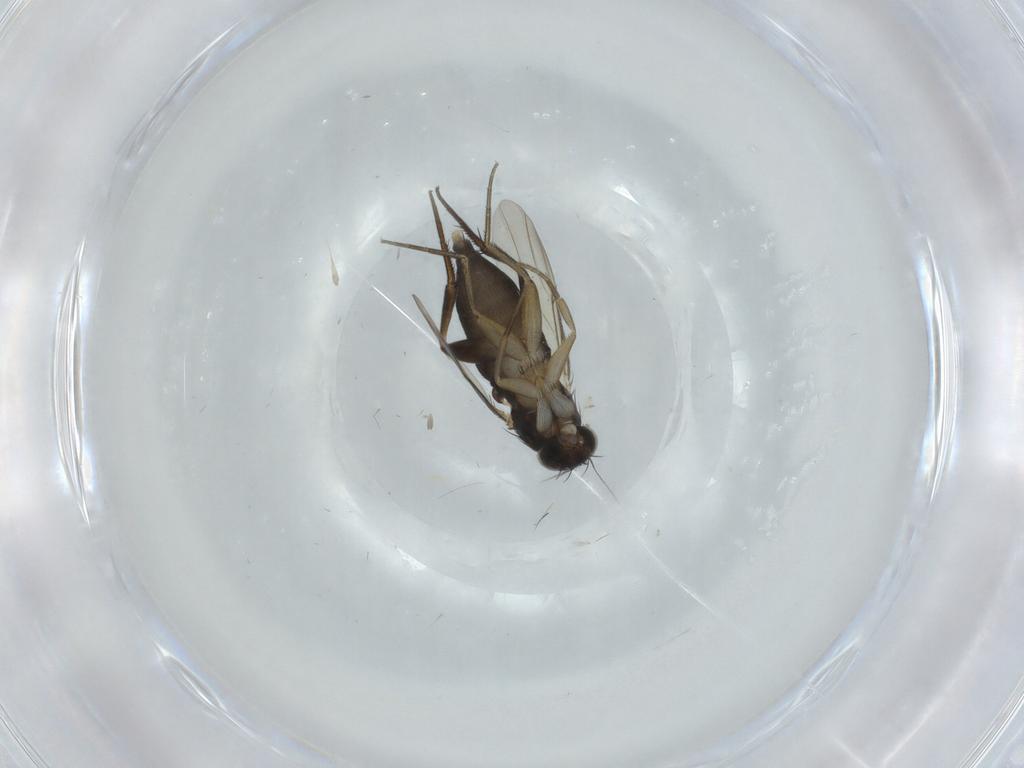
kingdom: Animalia
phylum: Arthropoda
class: Insecta
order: Diptera
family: Phoridae
